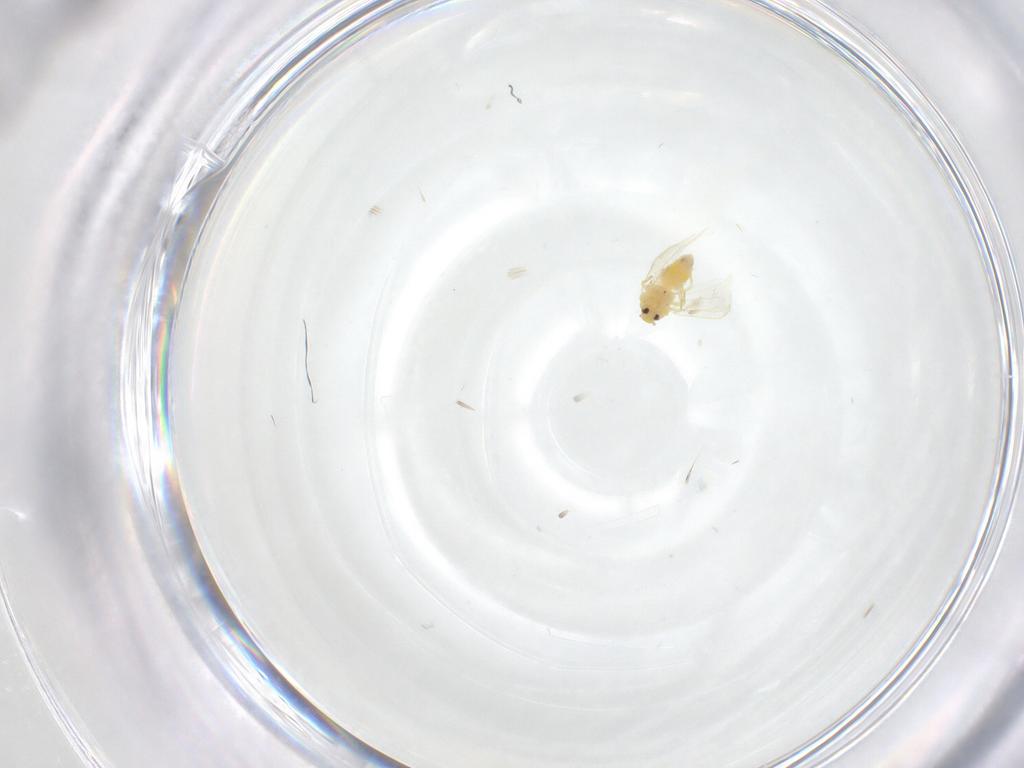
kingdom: Animalia
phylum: Arthropoda
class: Insecta
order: Hemiptera
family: Aleyrodidae
